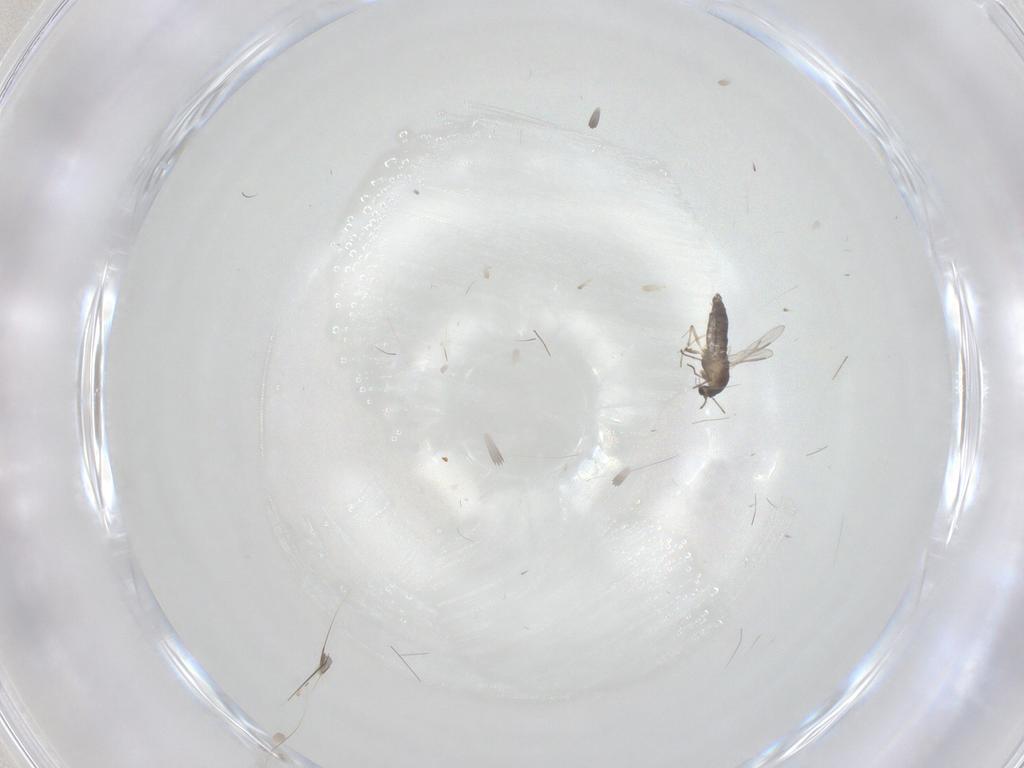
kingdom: Animalia
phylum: Arthropoda
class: Insecta
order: Diptera
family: Chironomidae
